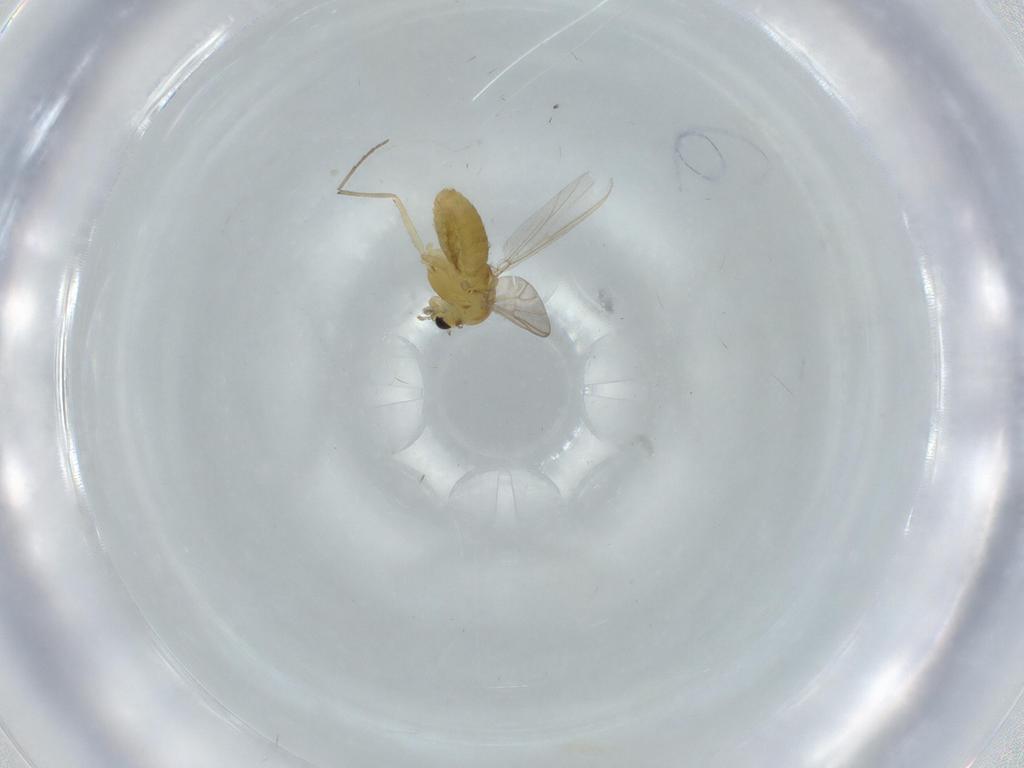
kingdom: Animalia
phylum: Arthropoda
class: Insecta
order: Diptera
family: Chironomidae
